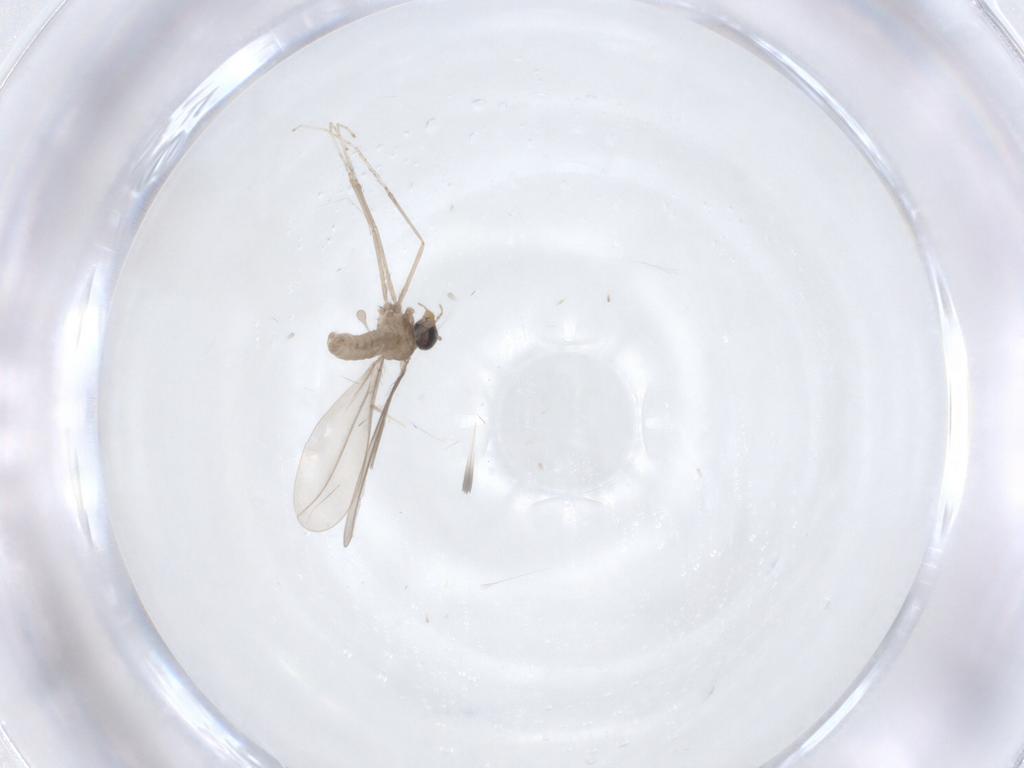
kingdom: Animalia
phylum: Arthropoda
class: Insecta
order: Diptera
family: Cecidomyiidae
